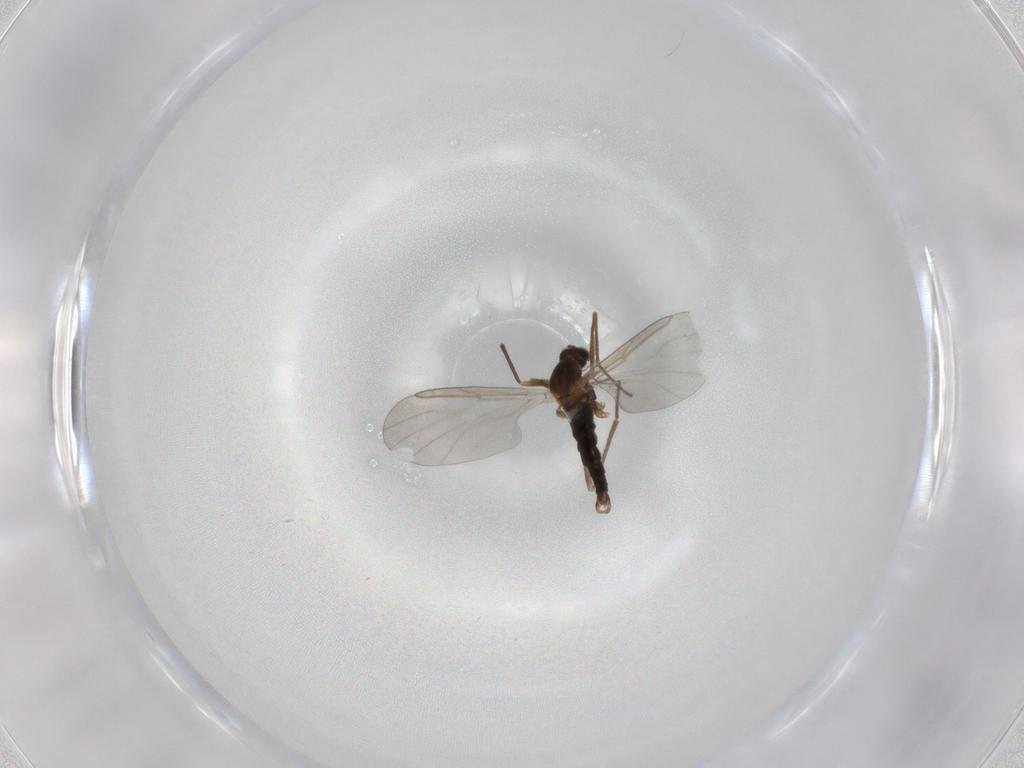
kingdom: Animalia
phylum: Arthropoda
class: Insecta
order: Diptera
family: Cecidomyiidae
